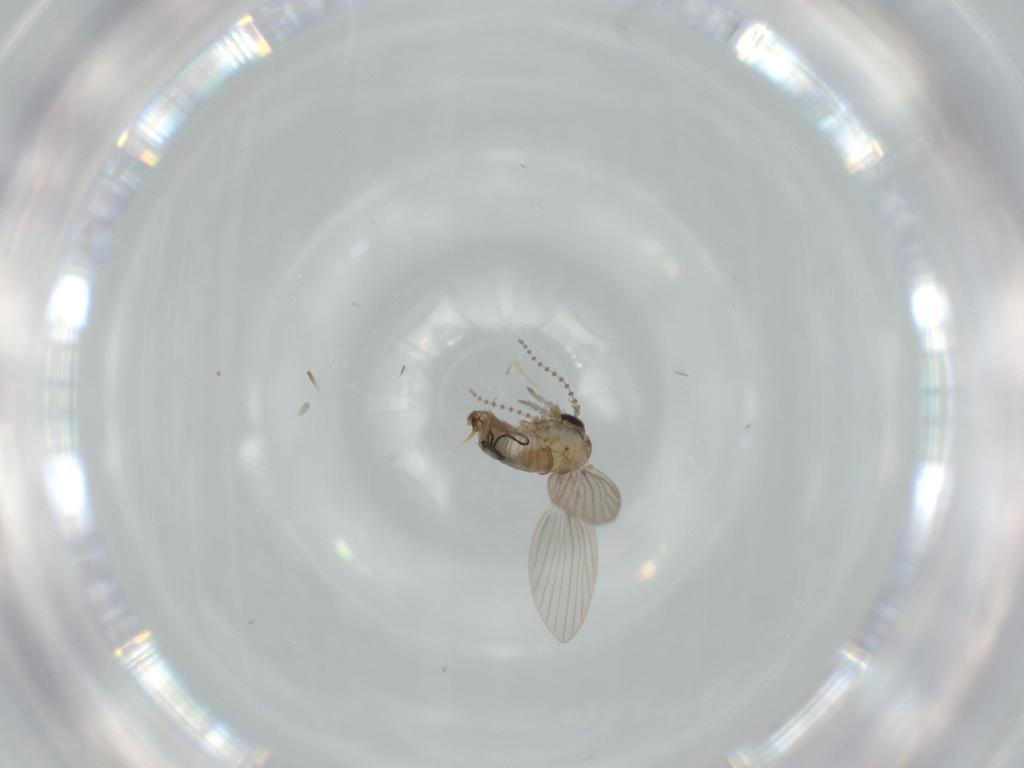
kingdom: Animalia
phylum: Arthropoda
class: Insecta
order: Diptera
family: Psychodidae
